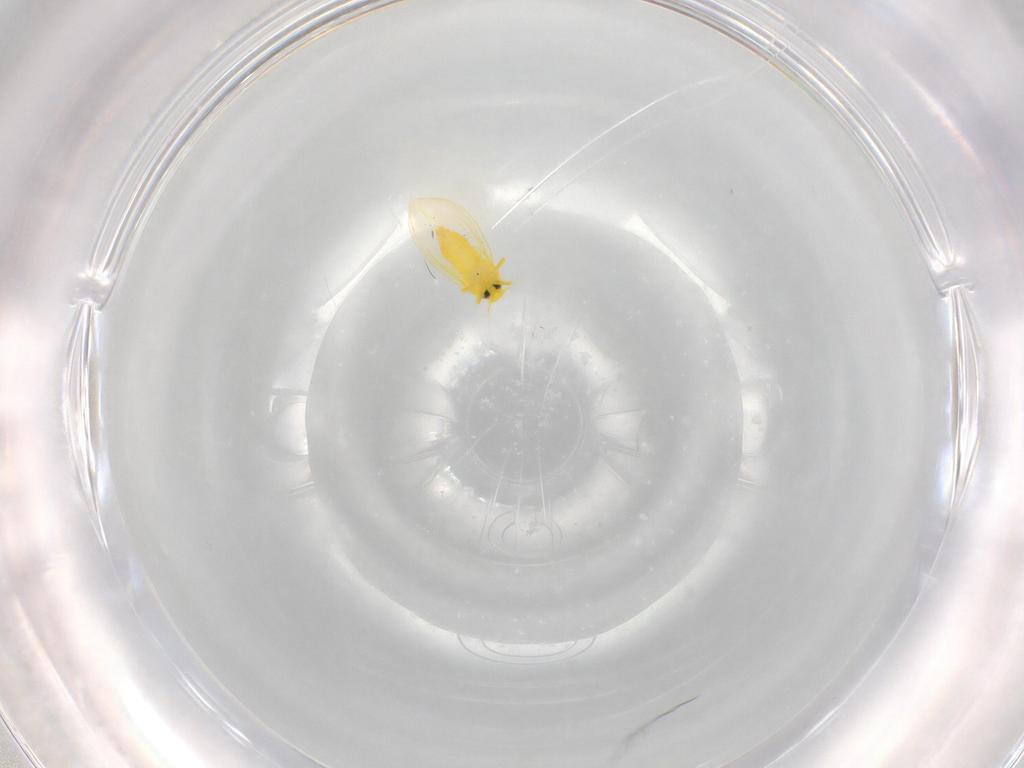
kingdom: Animalia
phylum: Arthropoda
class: Insecta
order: Hemiptera
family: Aleyrodidae
